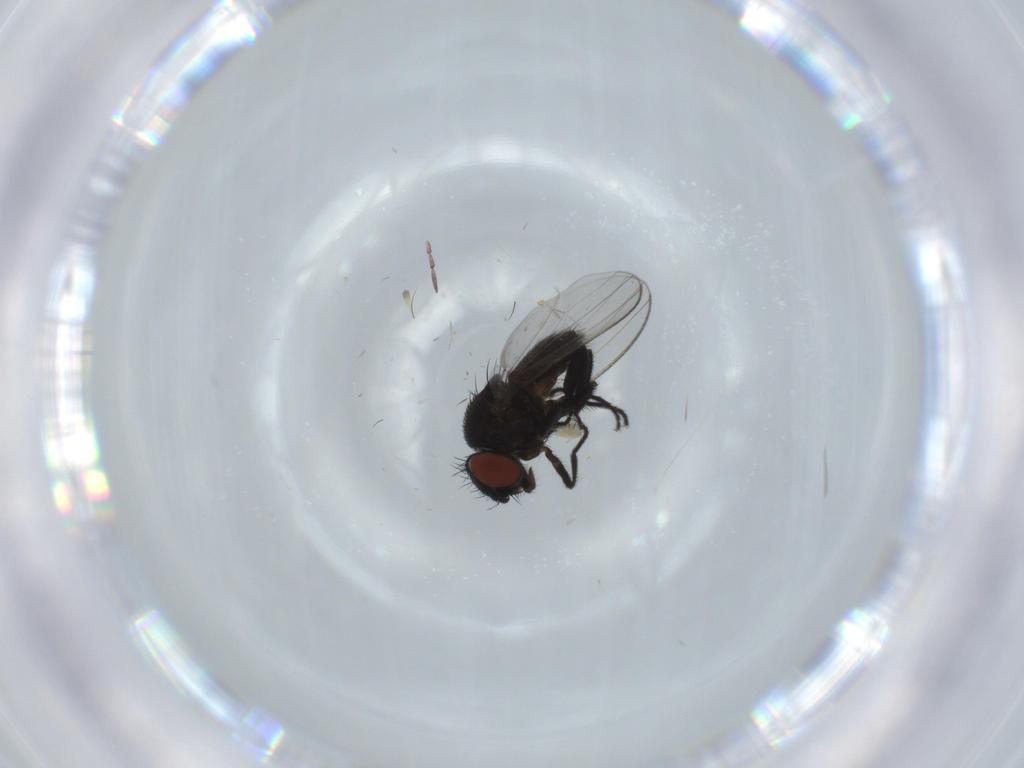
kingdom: Animalia
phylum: Arthropoda
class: Insecta
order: Diptera
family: Milichiidae
